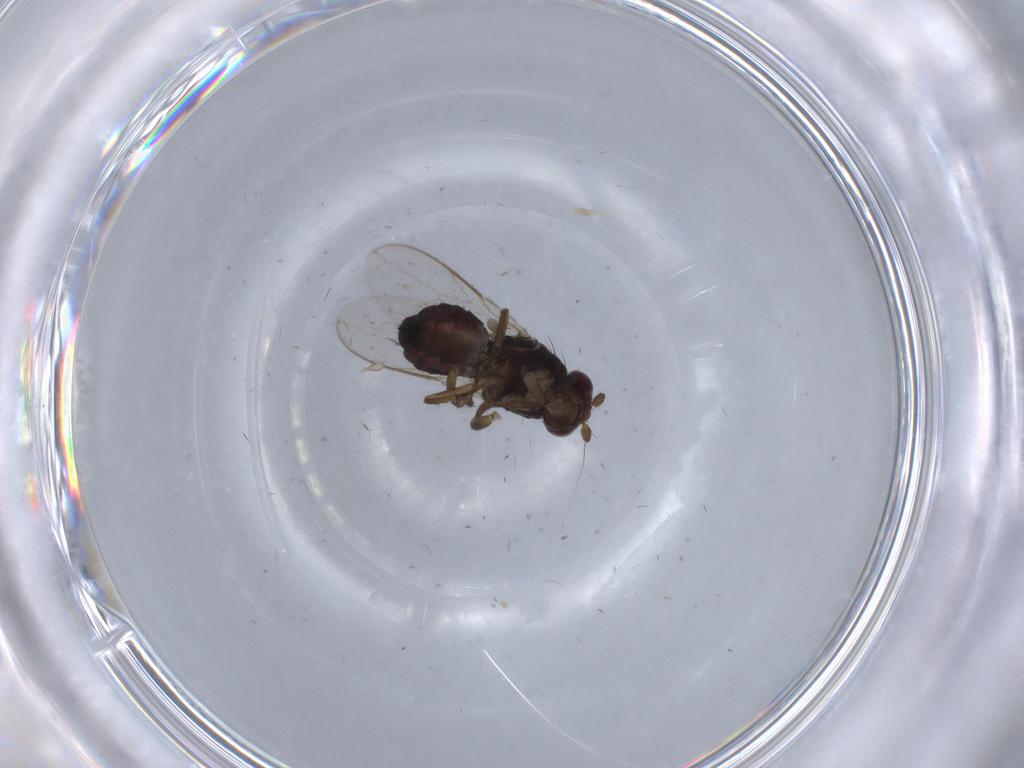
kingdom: Animalia
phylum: Arthropoda
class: Insecta
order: Diptera
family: Sphaeroceridae
